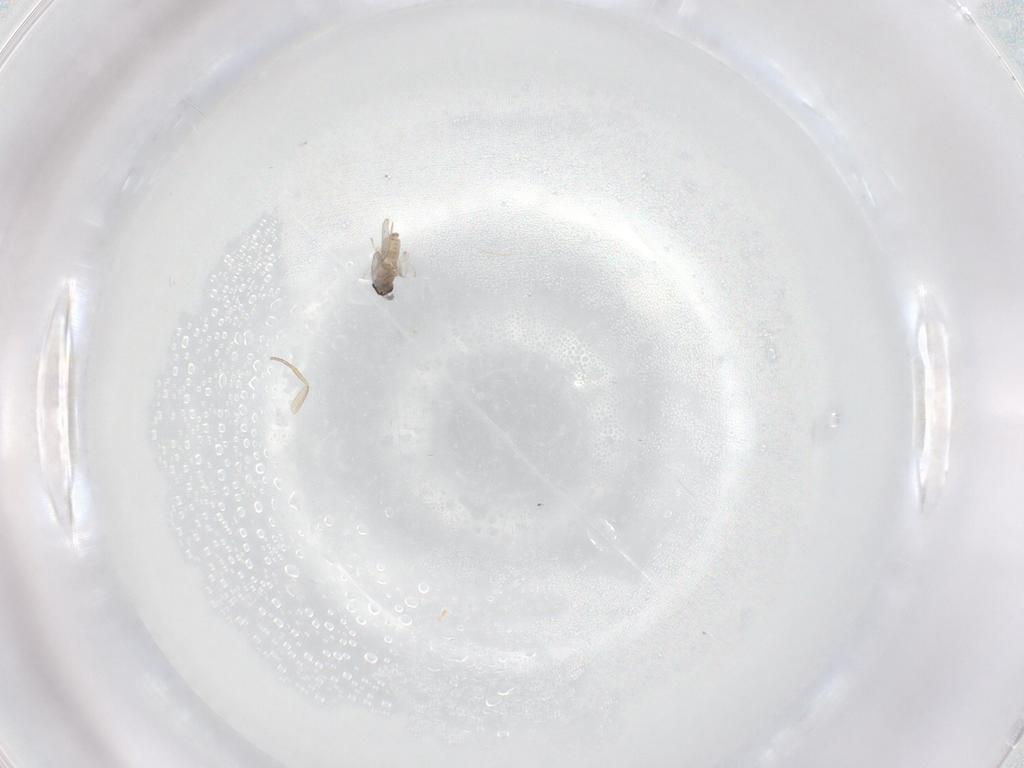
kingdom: Animalia
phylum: Arthropoda
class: Insecta
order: Diptera
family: Phoridae
